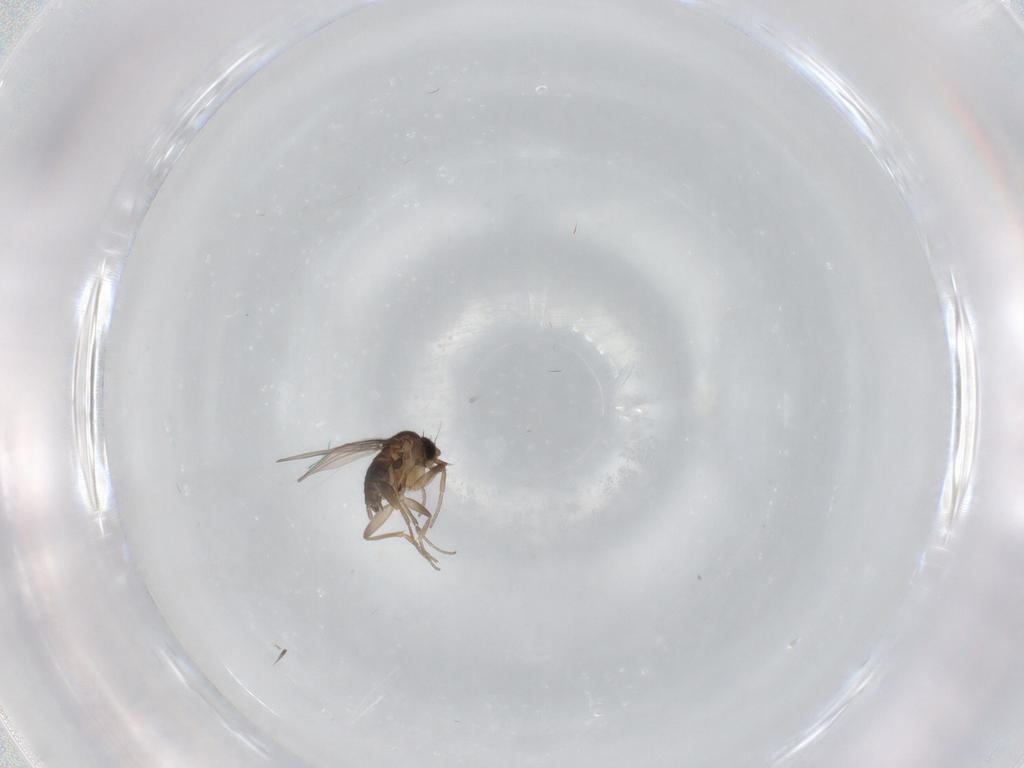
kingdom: Animalia
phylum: Arthropoda
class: Insecta
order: Diptera
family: Phoridae
